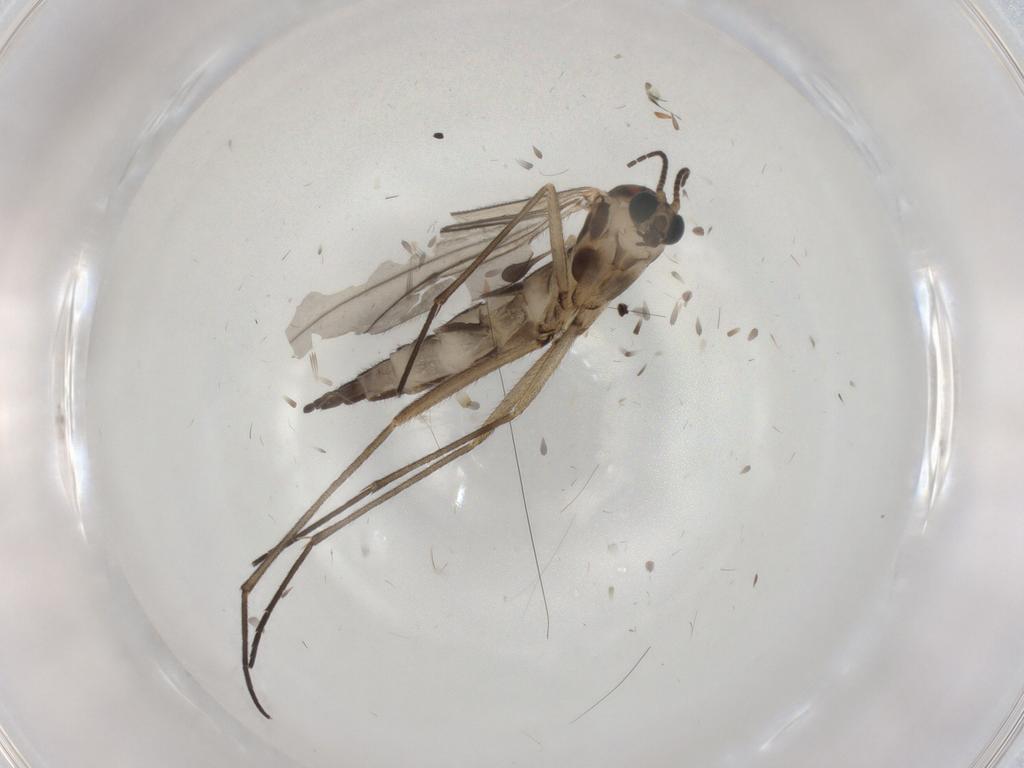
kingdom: Animalia
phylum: Arthropoda
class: Insecta
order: Diptera
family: Sciaridae
